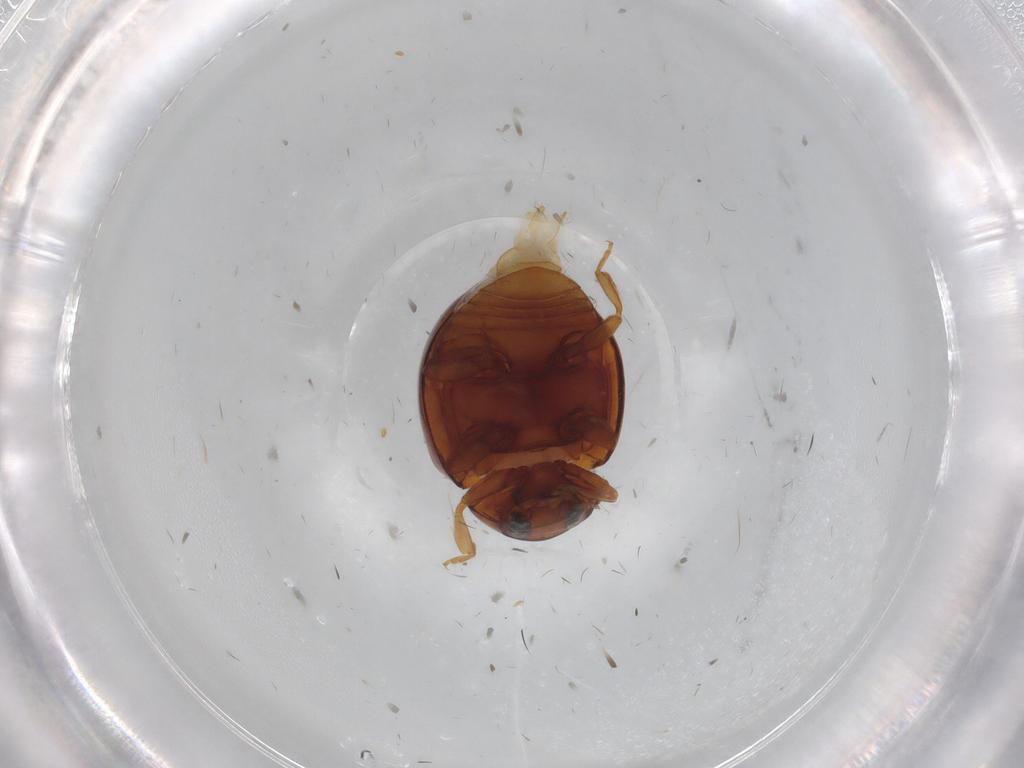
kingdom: Animalia
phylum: Arthropoda
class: Insecta
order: Coleoptera
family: Coccinellidae
